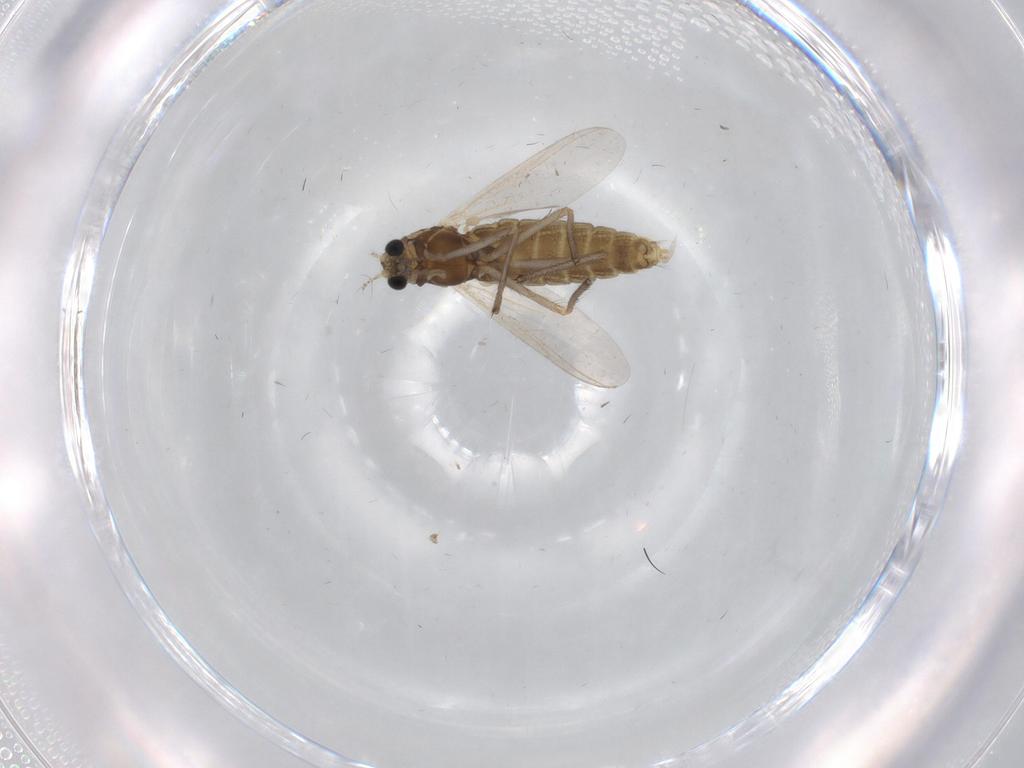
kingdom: Animalia
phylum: Arthropoda
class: Insecta
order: Diptera
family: Chironomidae
